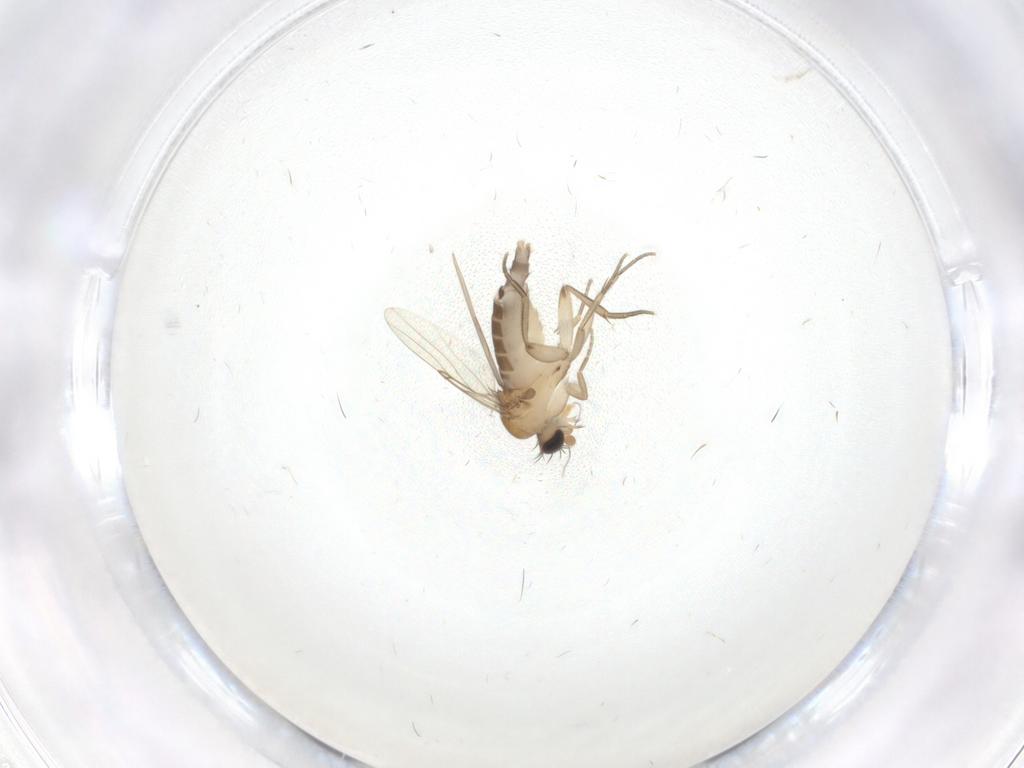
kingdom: Animalia
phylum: Arthropoda
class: Insecta
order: Diptera
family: Phoridae
